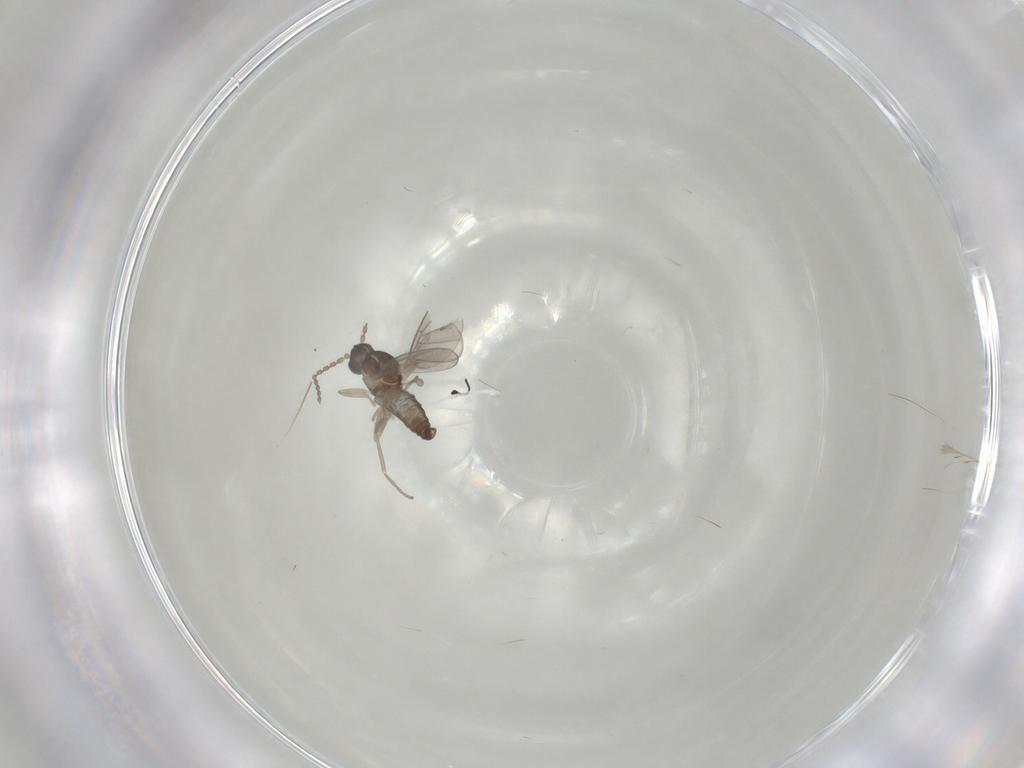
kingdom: Animalia
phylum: Arthropoda
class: Insecta
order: Diptera
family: Cecidomyiidae
